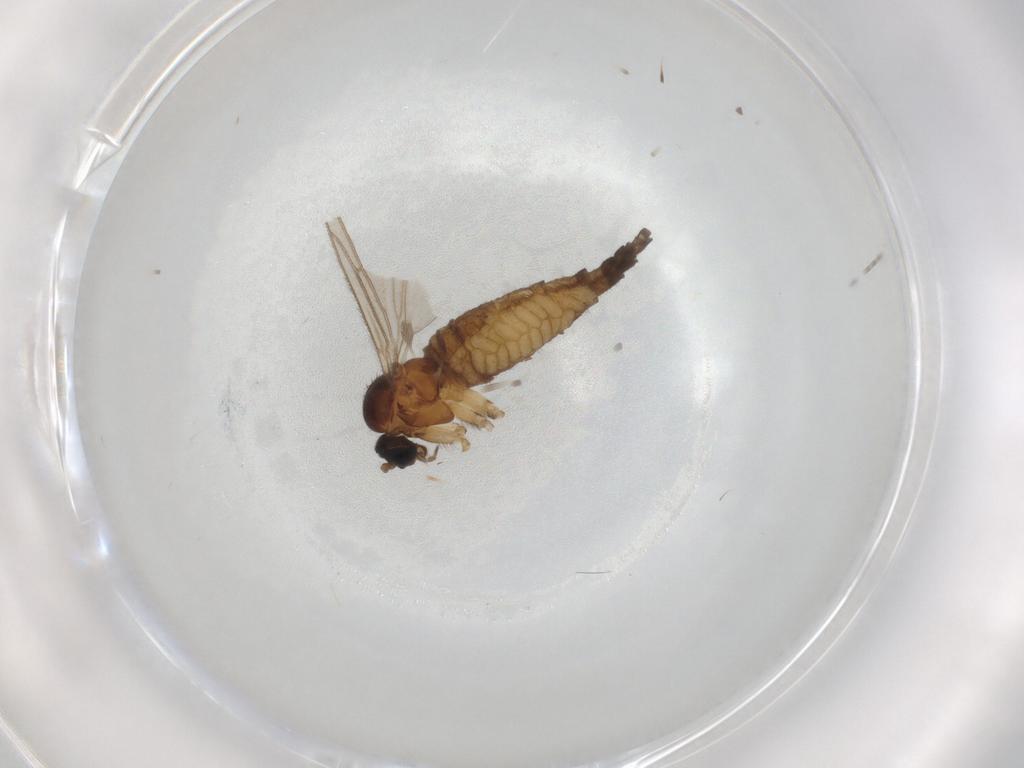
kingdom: Animalia
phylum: Arthropoda
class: Insecta
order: Diptera
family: Sciaridae
